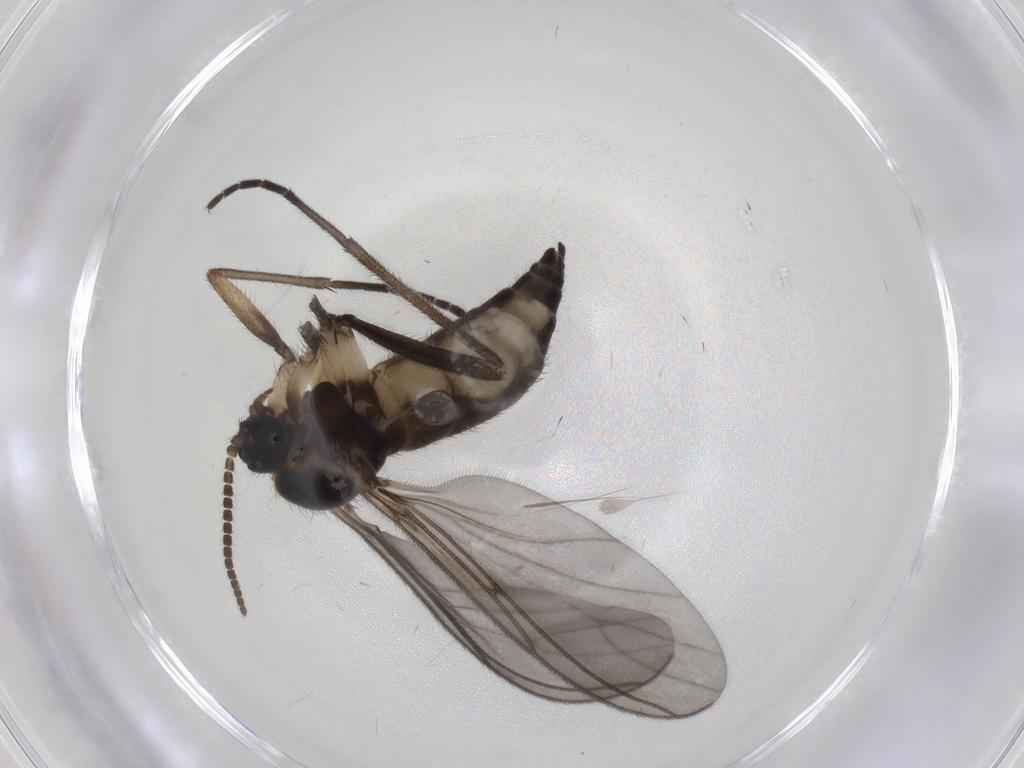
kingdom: Animalia
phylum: Arthropoda
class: Insecta
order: Diptera
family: Sciaridae
